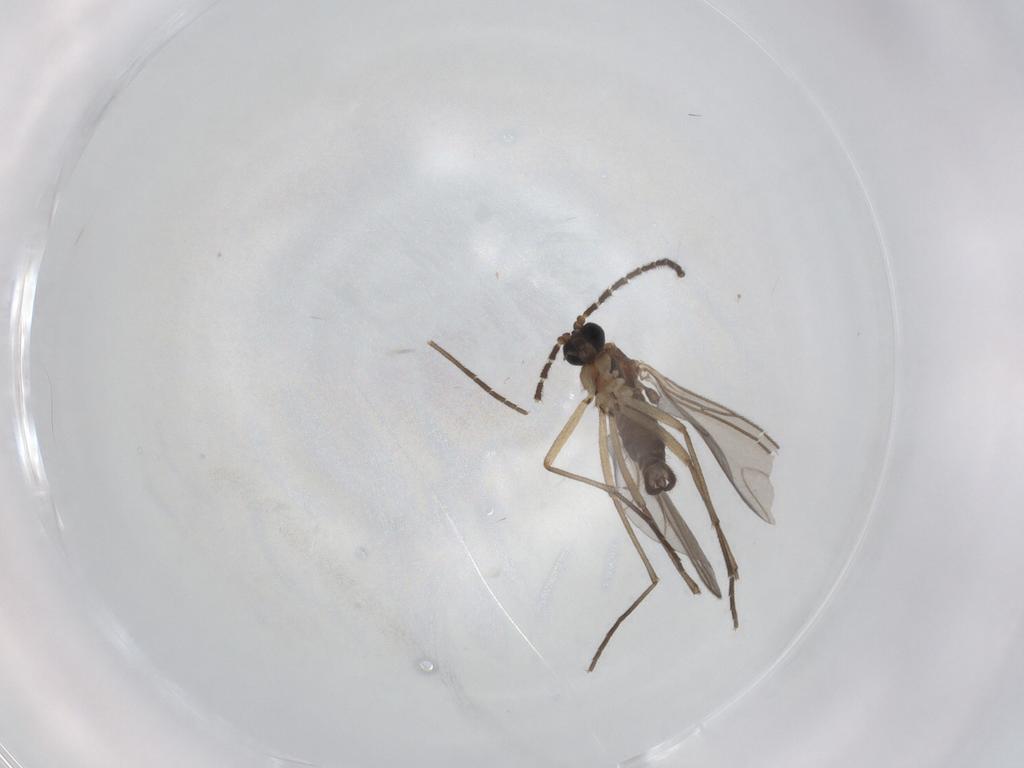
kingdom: Animalia
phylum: Arthropoda
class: Insecta
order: Diptera
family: Sciaridae
